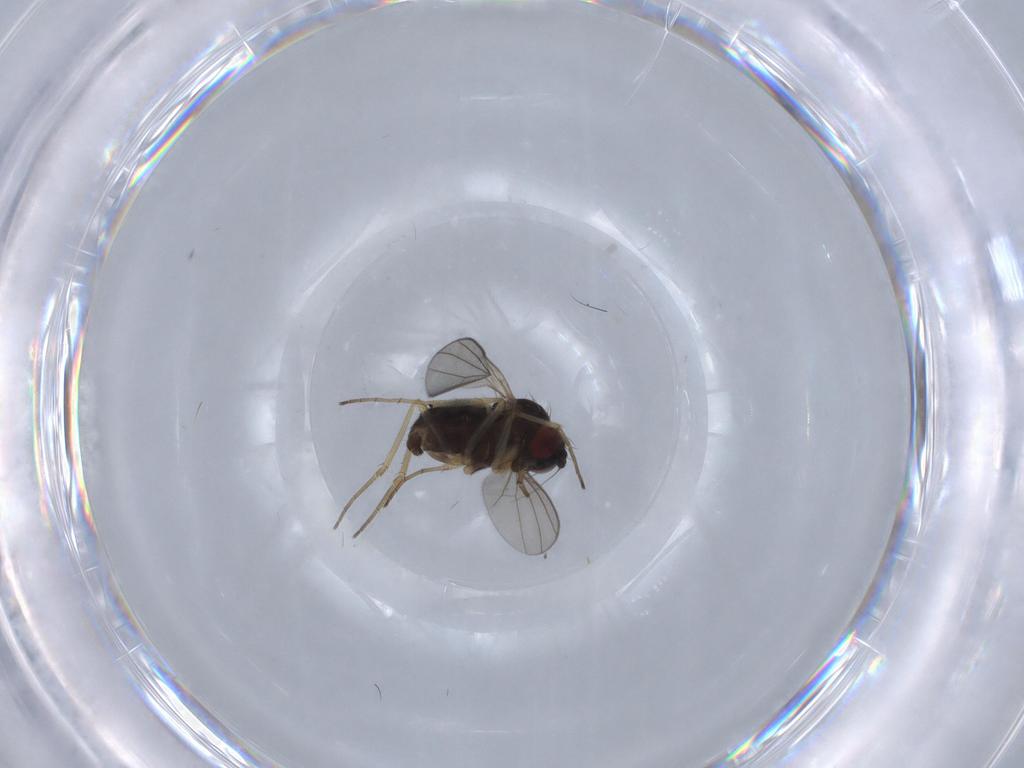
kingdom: Animalia
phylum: Arthropoda
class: Insecta
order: Diptera
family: Dolichopodidae
